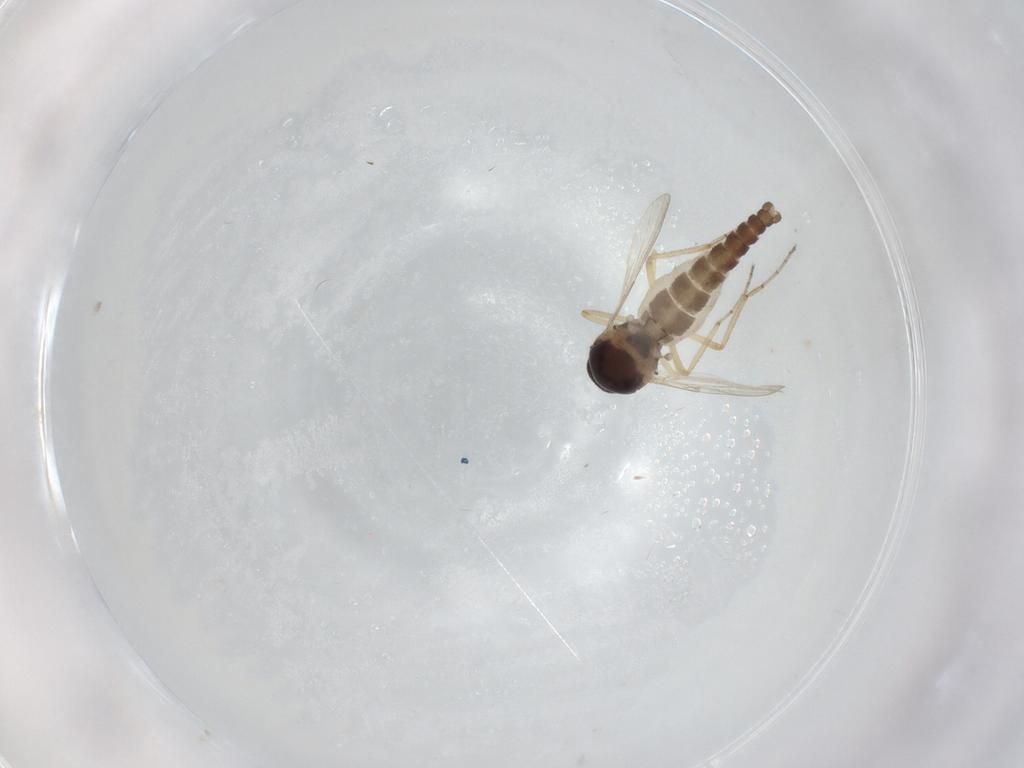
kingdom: Animalia
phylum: Arthropoda
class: Insecta
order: Diptera
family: Ceratopogonidae
